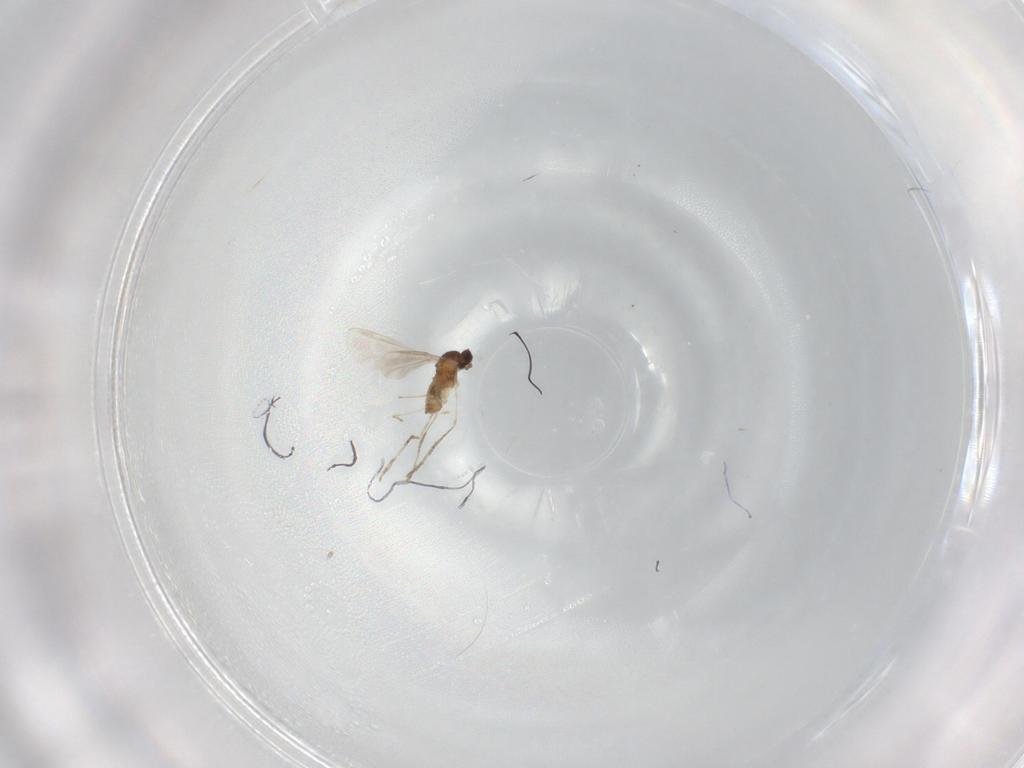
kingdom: Animalia
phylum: Arthropoda
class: Insecta
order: Diptera
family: Cecidomyiidae
